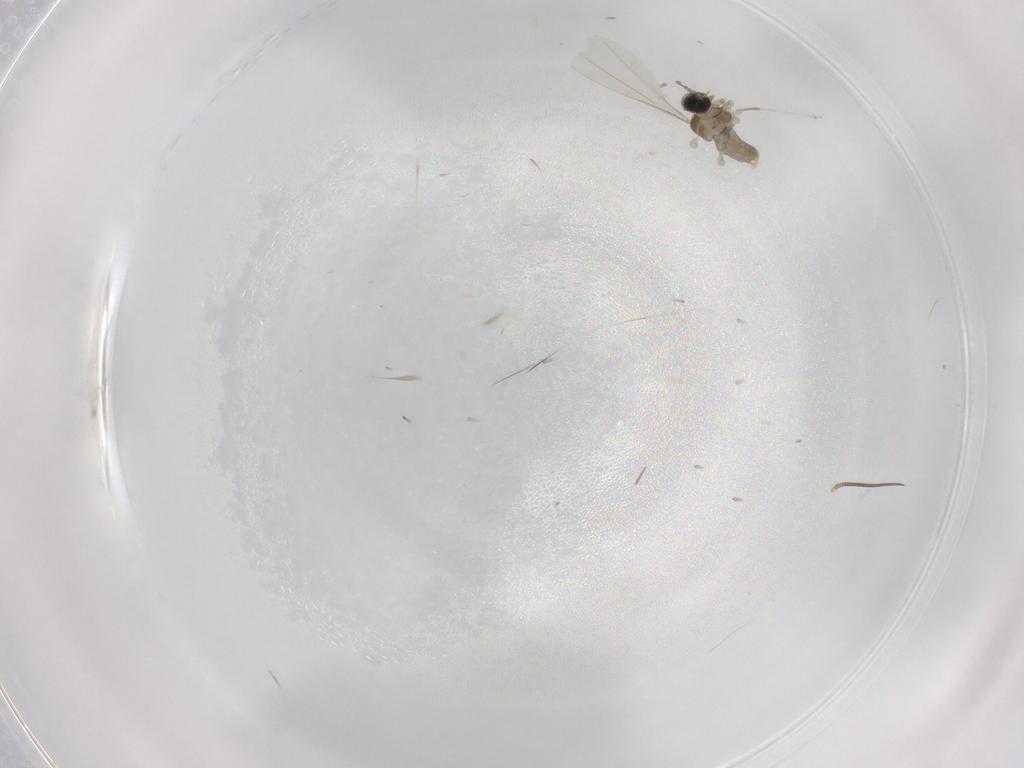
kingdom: Animalia
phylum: Arthropoda
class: Insecta
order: Diptera
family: Chironomidae
